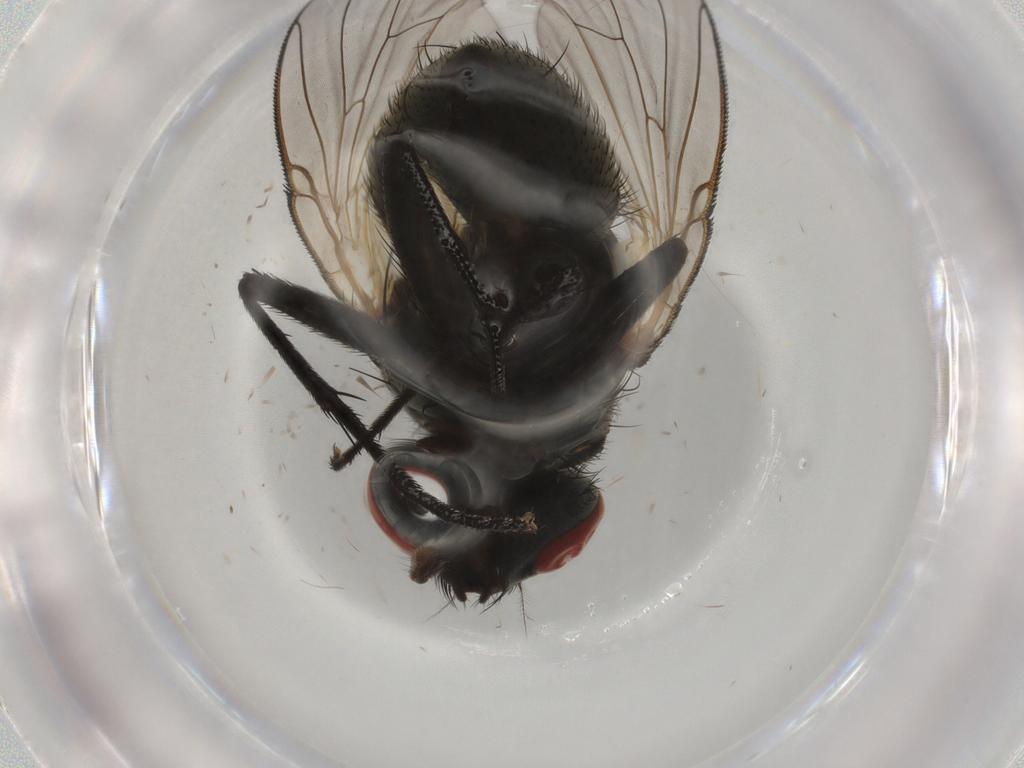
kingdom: Animalia
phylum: Arthropoda
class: Insecta
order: Diptera
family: Muscidae
